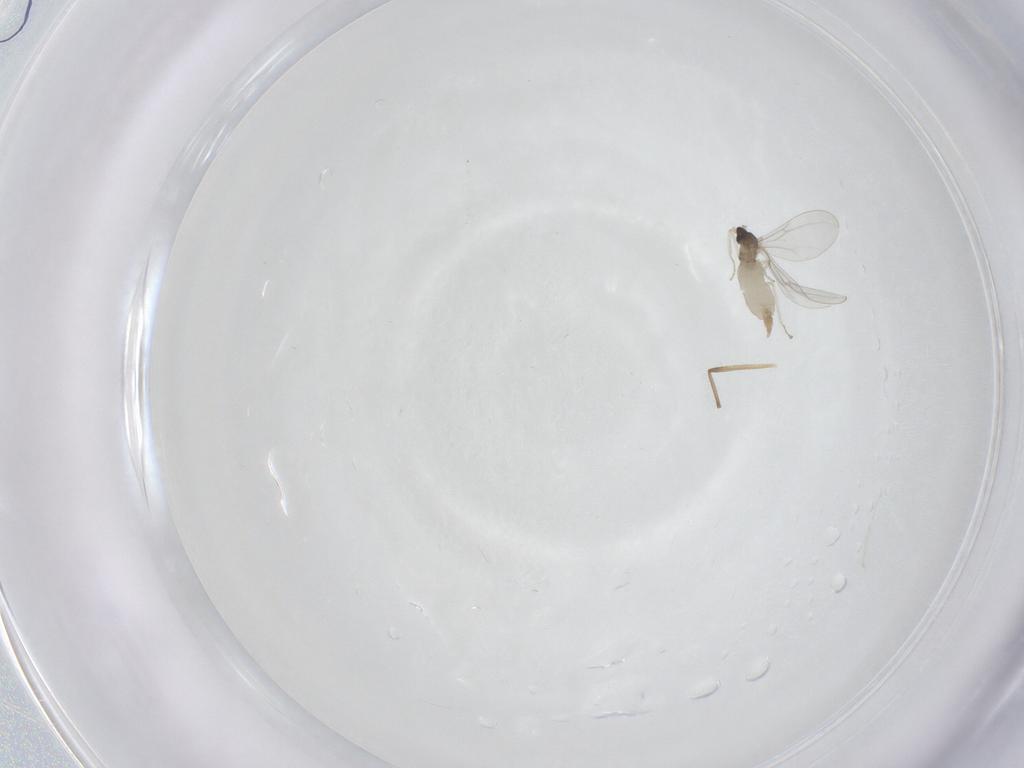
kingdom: Animalia
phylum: Arthropoda
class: Insecta
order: Diptera
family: Cecidomyiidae
